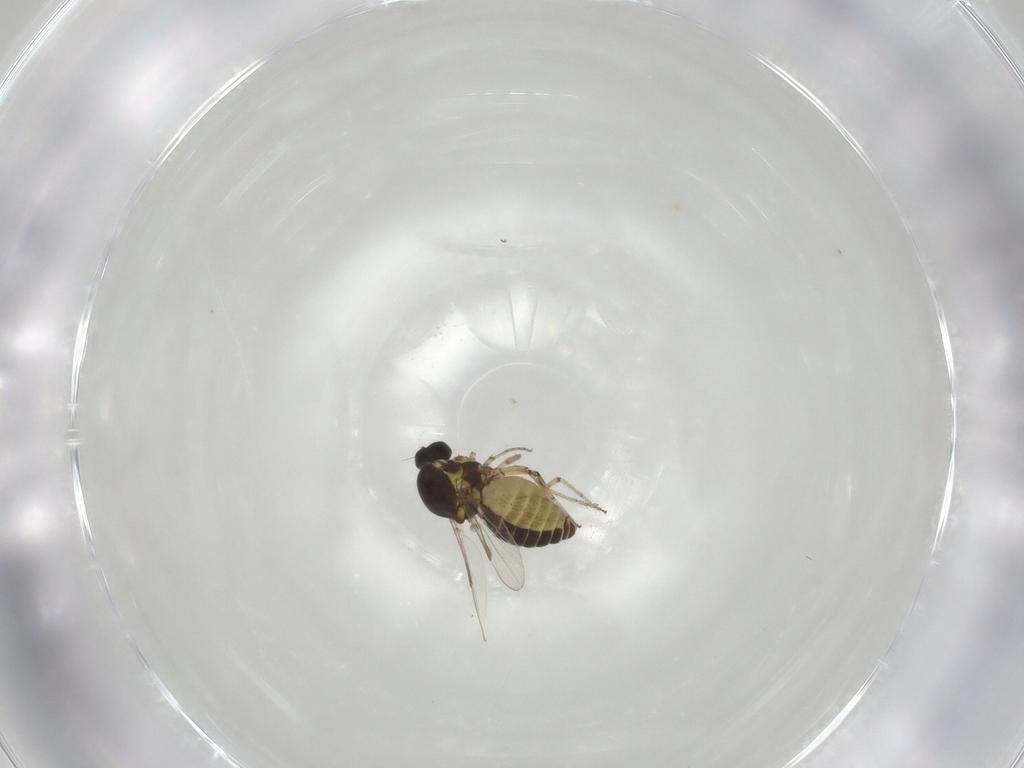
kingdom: Animalia
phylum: Arthropoda
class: Insecta
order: Diptera
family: Ceratopogonidae
